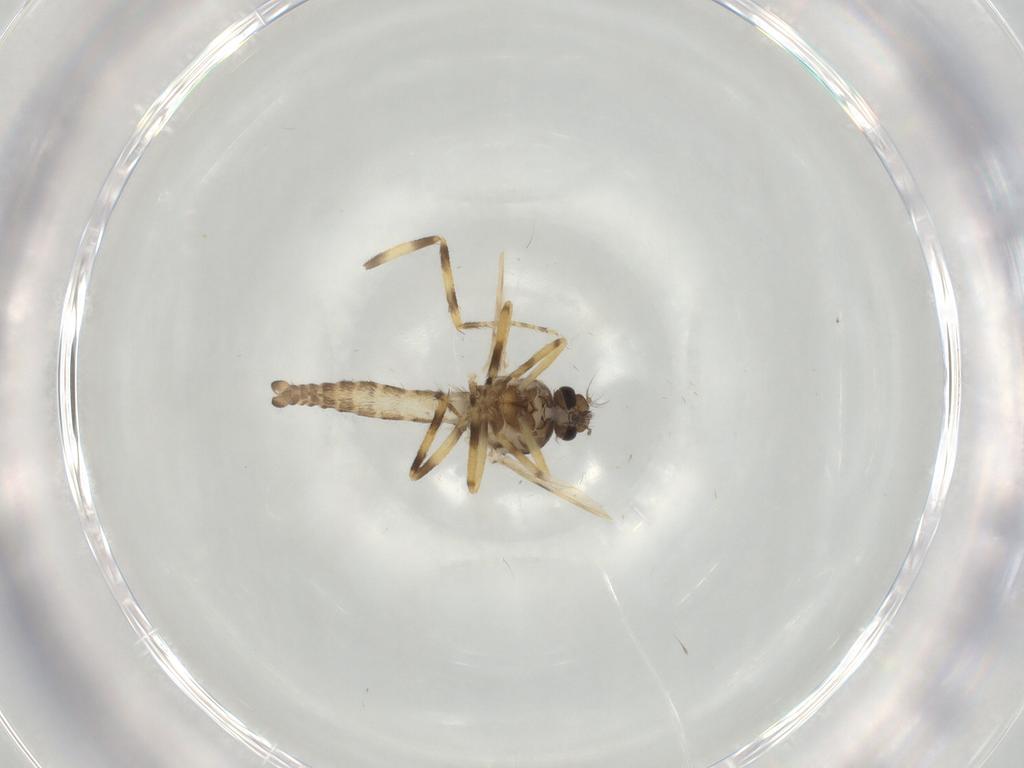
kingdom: Animalia
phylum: Arthropoda
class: Insecta
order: Diptera
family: Ceratopogonidae
